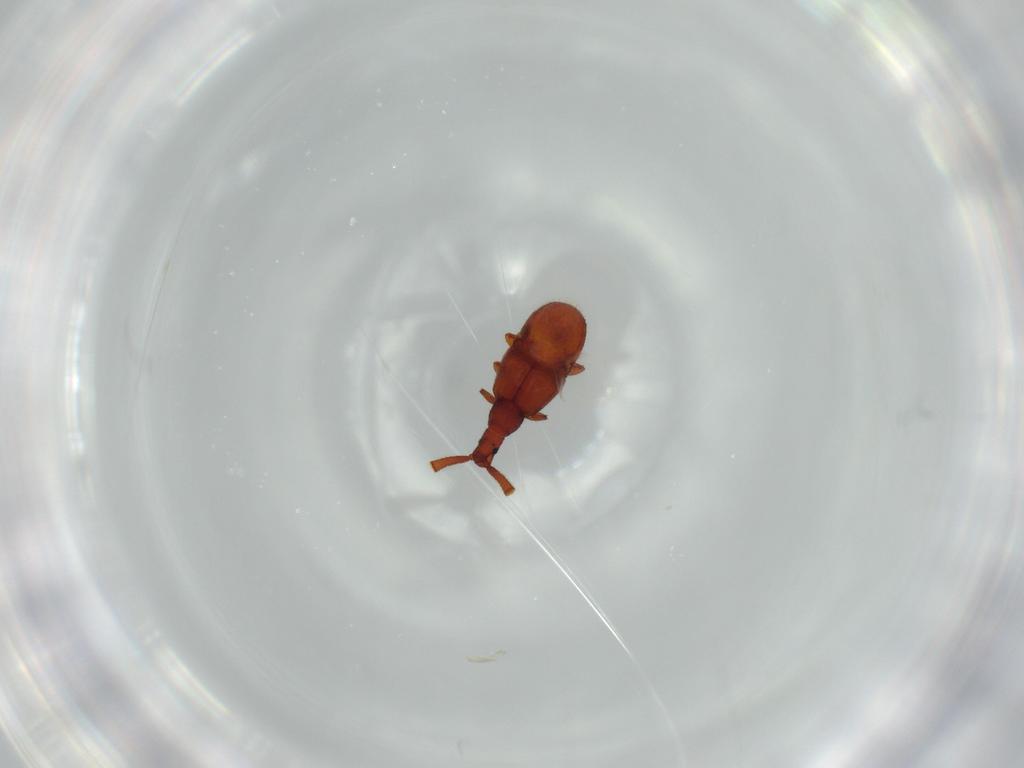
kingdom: Animalia
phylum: Arthropoda
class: Insecta
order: Coleoptera
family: Staphylinidae
